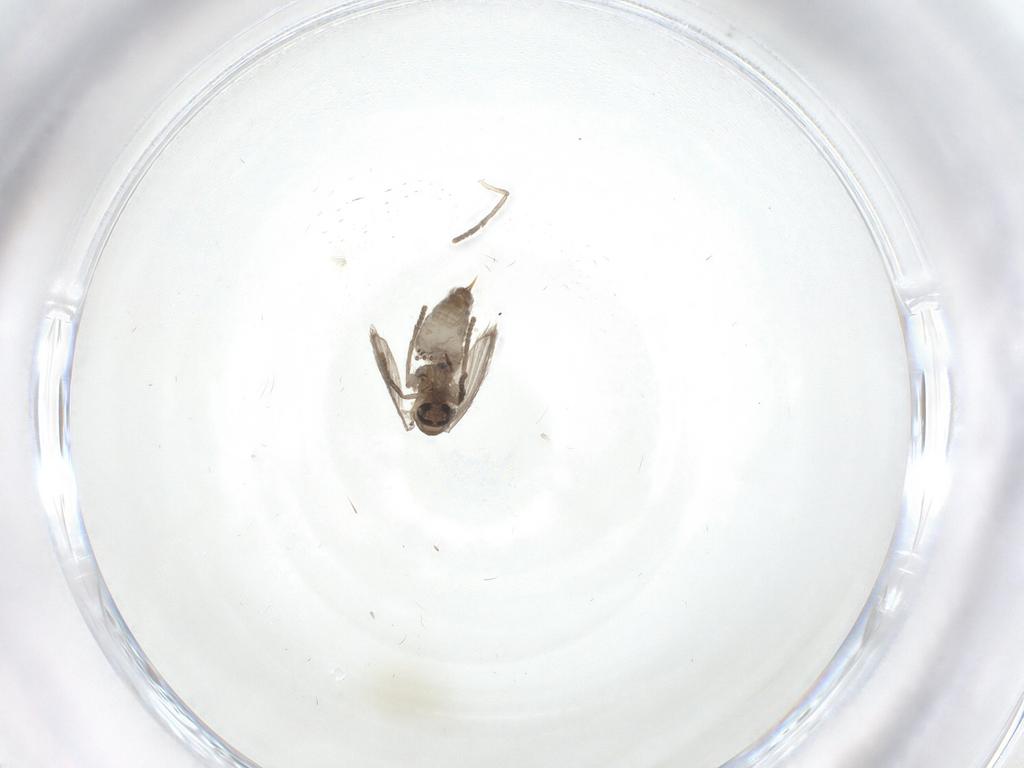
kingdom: Animalia
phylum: Arthropoda
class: Insecta
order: Diptera
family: Psychodidae
